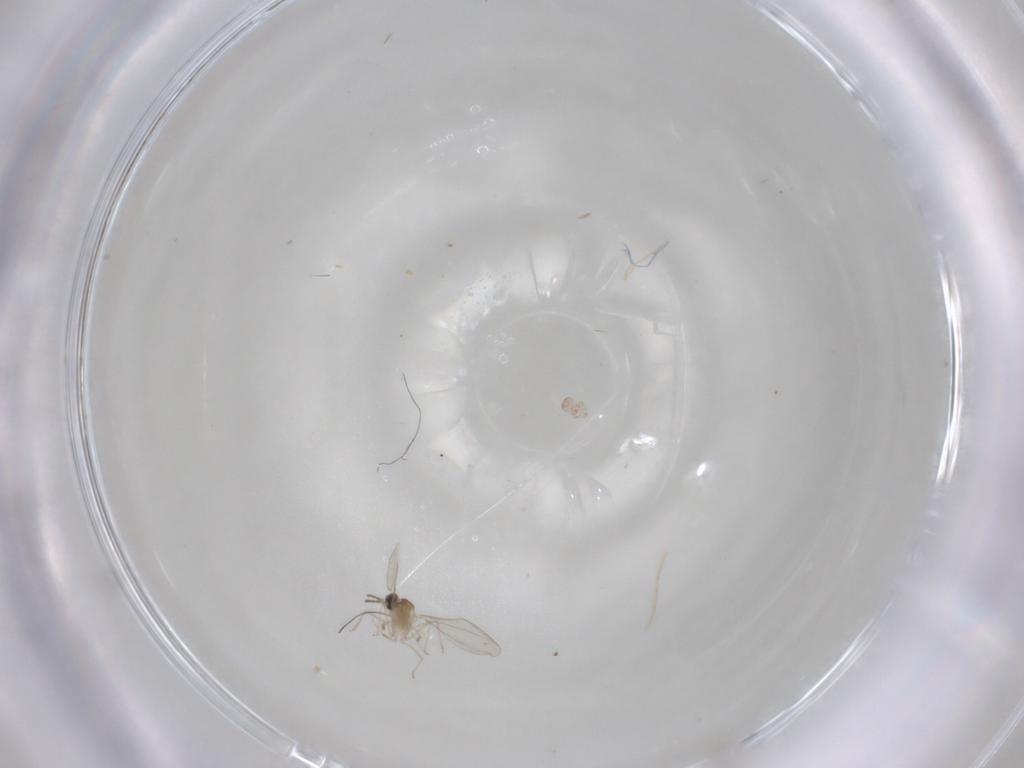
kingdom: Animalia
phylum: Arthropoda
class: Insecta
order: Diptera
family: Cecidomyiidae
